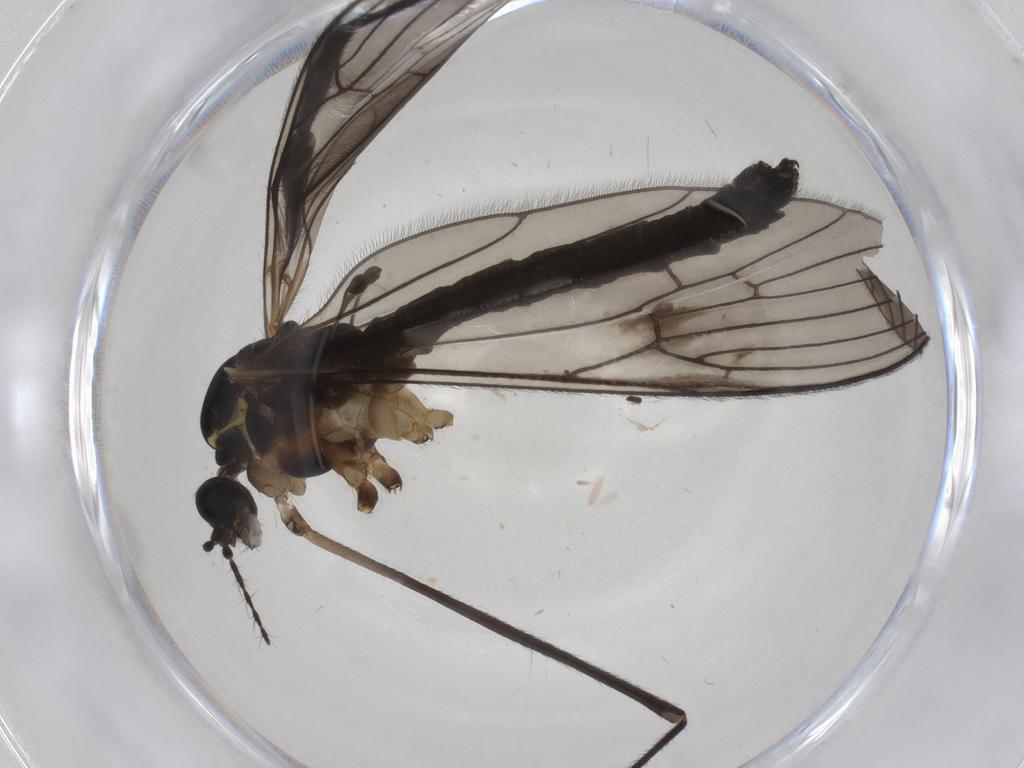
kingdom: Animalia
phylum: Arthropoda
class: Insecta
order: Diptera
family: Limoniidae
